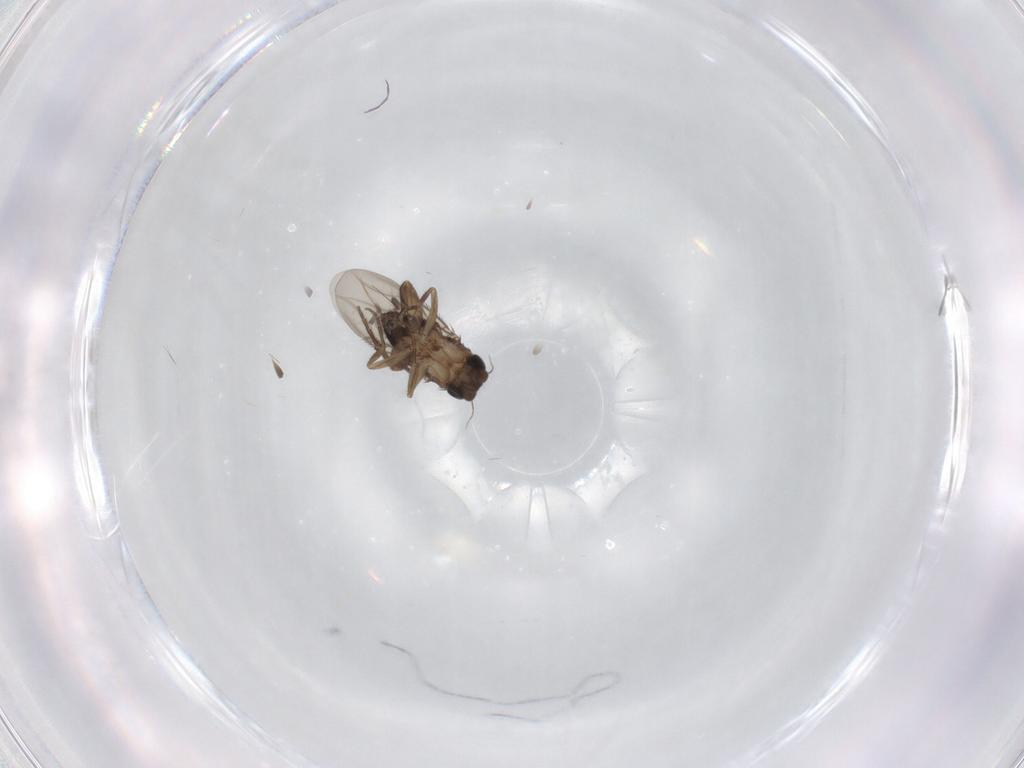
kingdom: Animalia
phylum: Arthropoda
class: Insecta
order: Diptera
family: Phoridae
